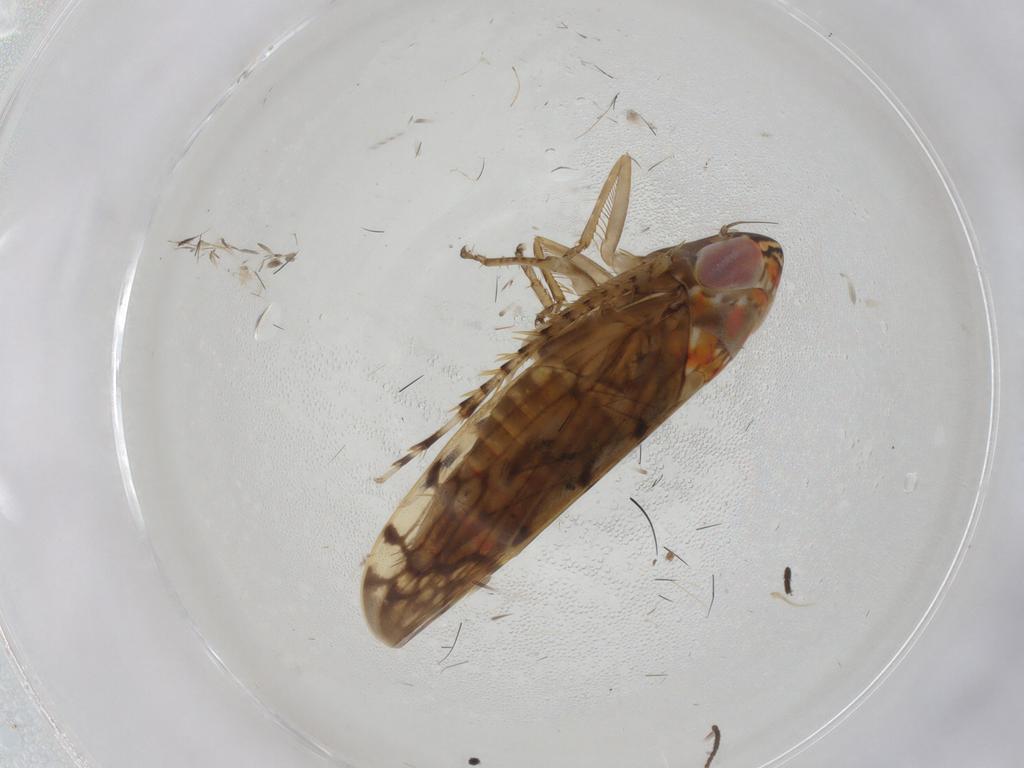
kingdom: Animalia
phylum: Arthropoda
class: Insecta
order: Hemiptera
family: Cicadellidae
